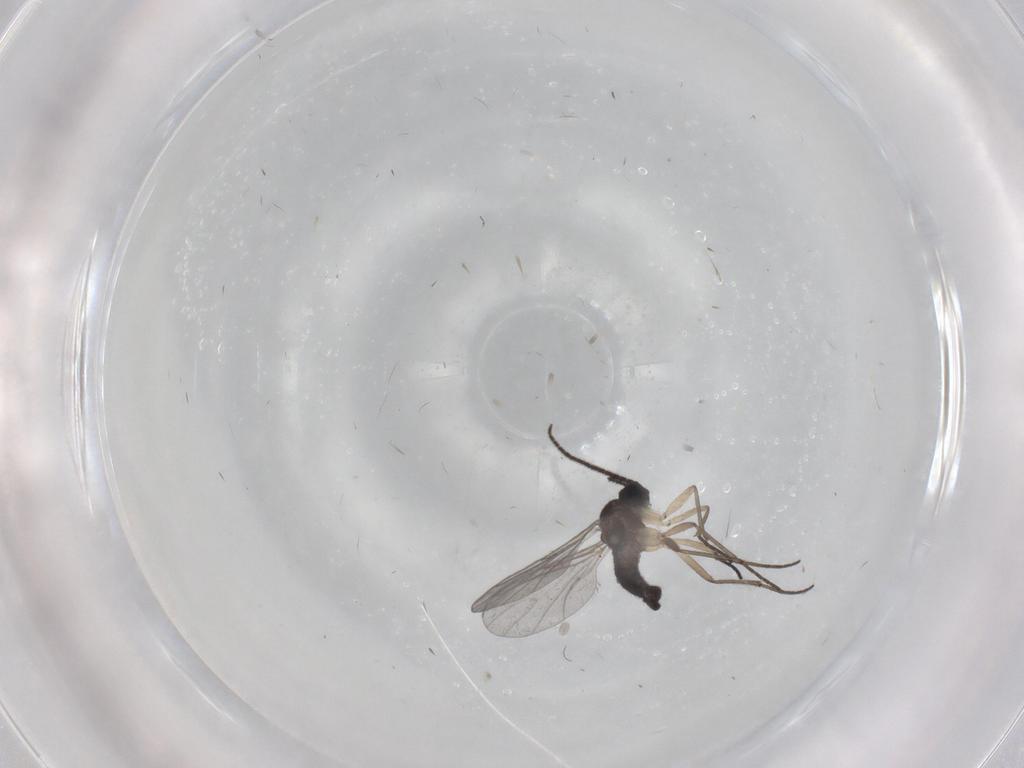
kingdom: Animalia
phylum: Arthropoda
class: Insecta
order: Diptera
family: Sciaridae
